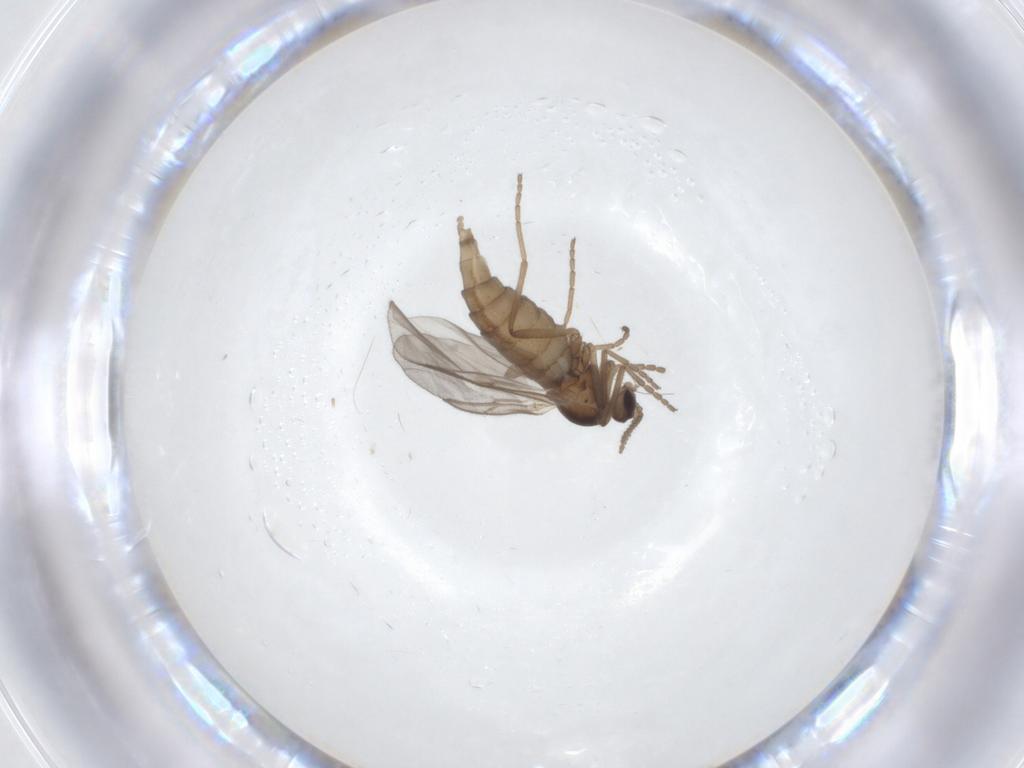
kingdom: Animalia
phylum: Arthropoda
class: Insecta
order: Diptera
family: Cecidomyiidae
